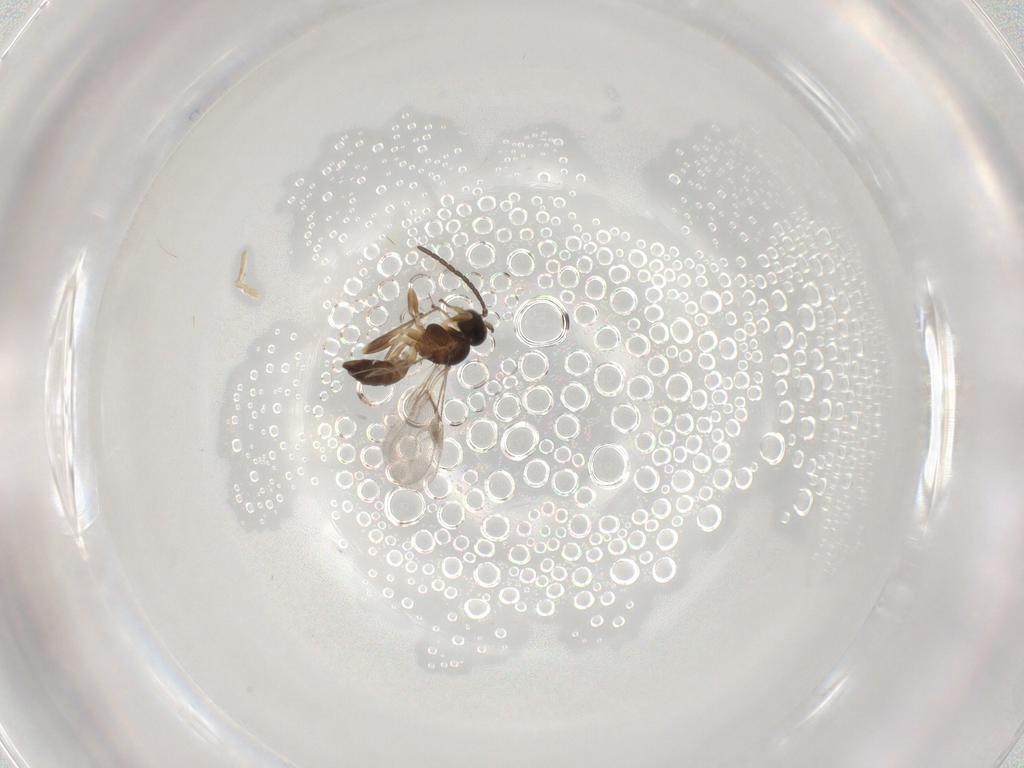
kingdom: Animalia
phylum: Arthropoda
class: Insecta
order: Hymenoptera
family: Braconidae
